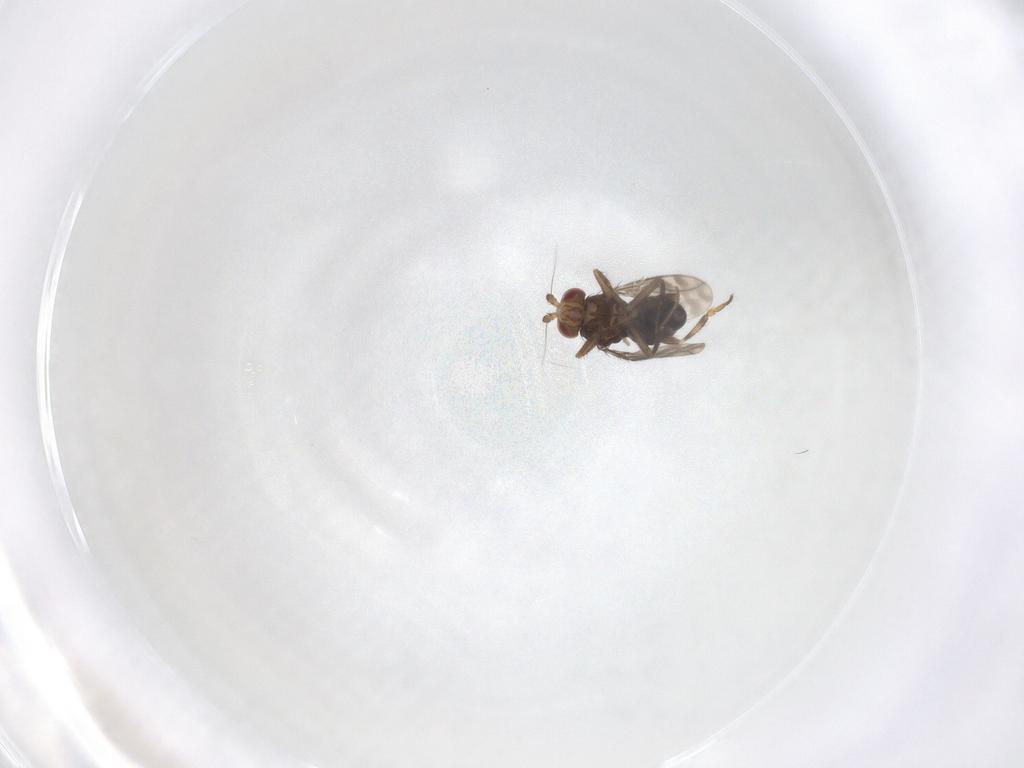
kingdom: Animalia
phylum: Arthropoda
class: Insecta
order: Diptera
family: Sphaeroceridae
